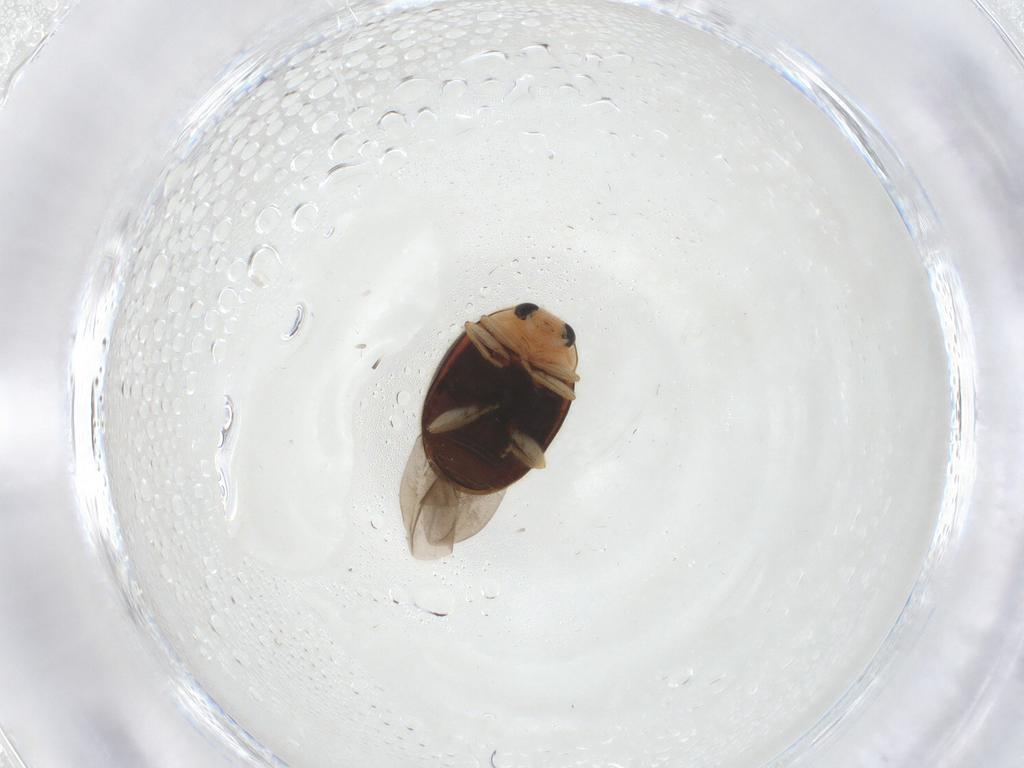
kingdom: Animalia
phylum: Arthropoda
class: Insecta
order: Coleoptera
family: Coccinellidae
